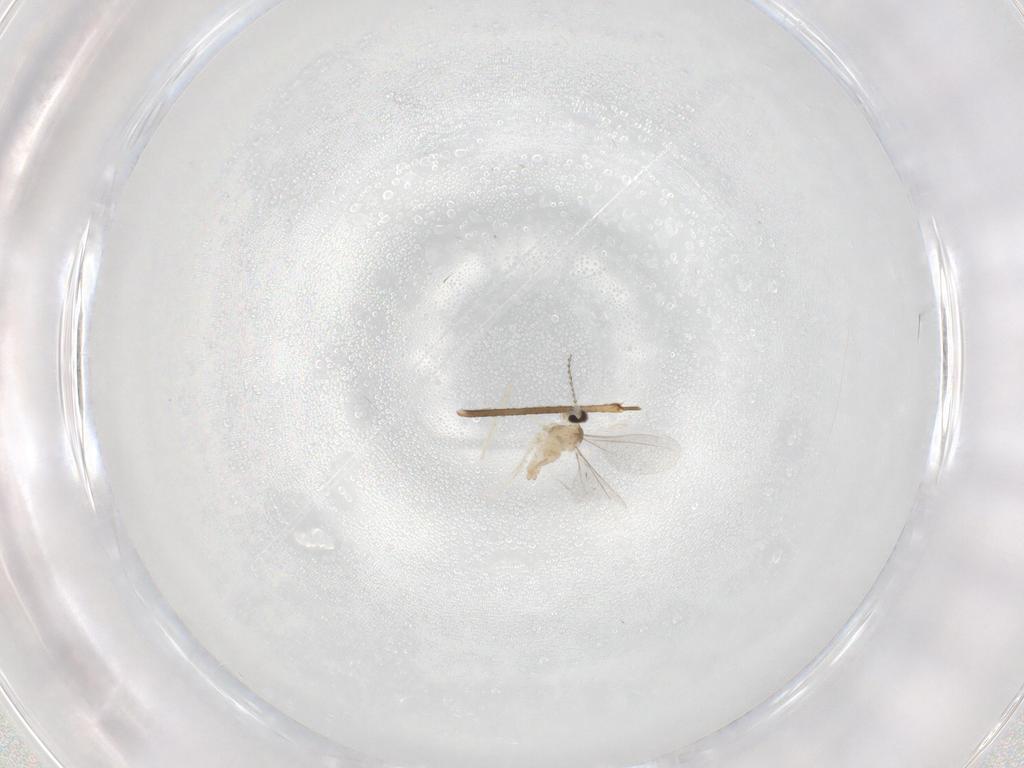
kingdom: Animalia
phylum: Arthropoda
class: Insecta
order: Diptera
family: Cecidomyiidae
